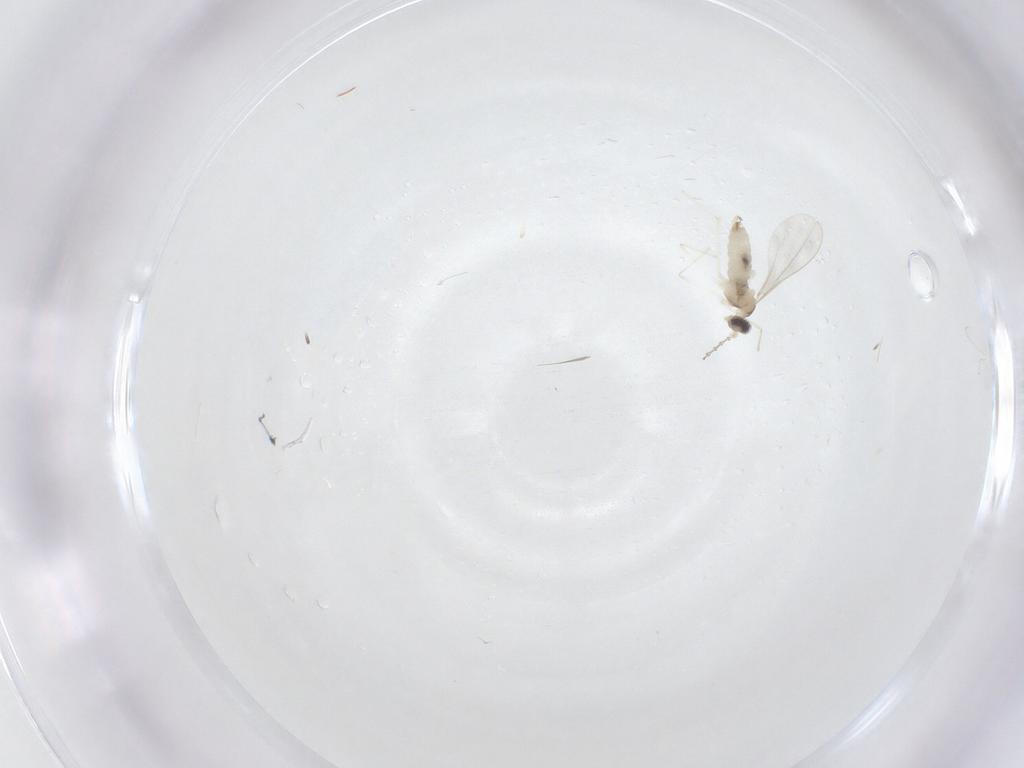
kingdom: Animalia
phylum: Arthropoda
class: Insecta
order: Diptera
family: Cecidomyiidae
